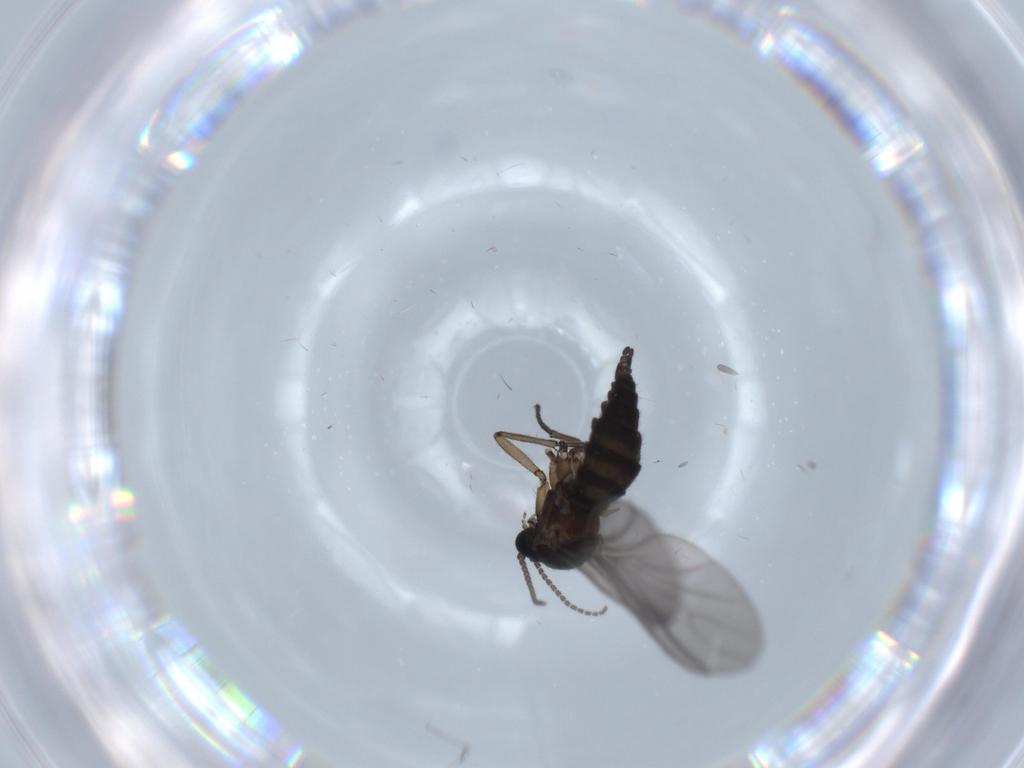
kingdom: Animalia
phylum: Arthropoda
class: Insecta
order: Diptera
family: Sciaridae
